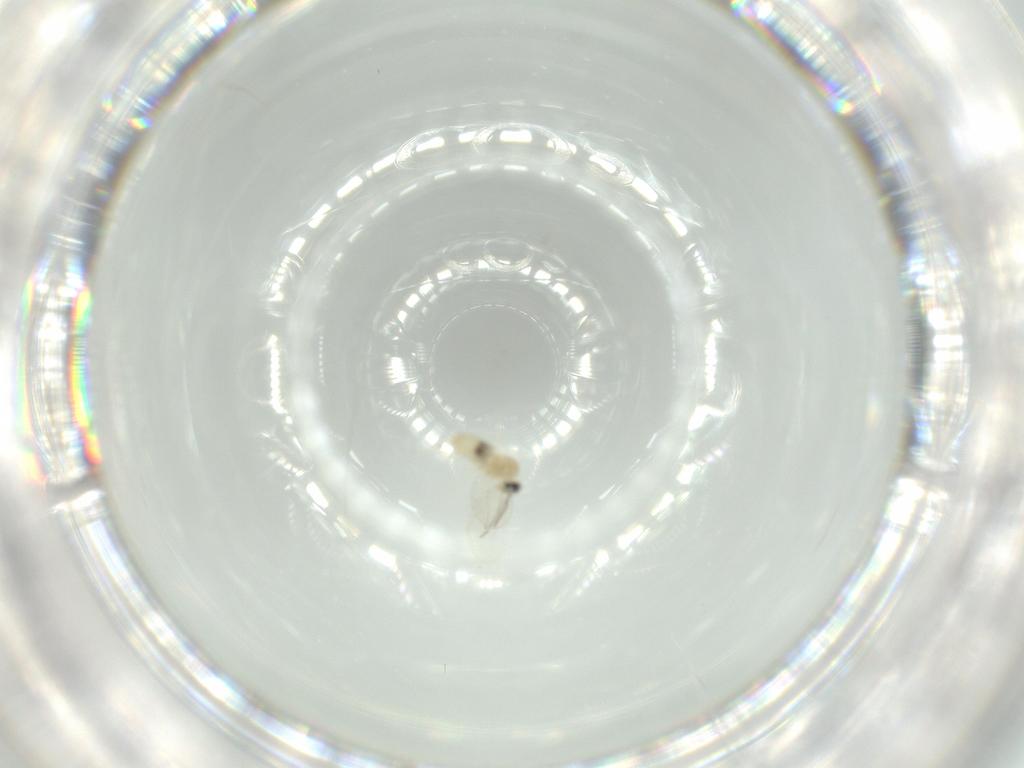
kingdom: Animalia
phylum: Arthropoda
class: Insecta
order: Diptera
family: Cecidomyiidae
